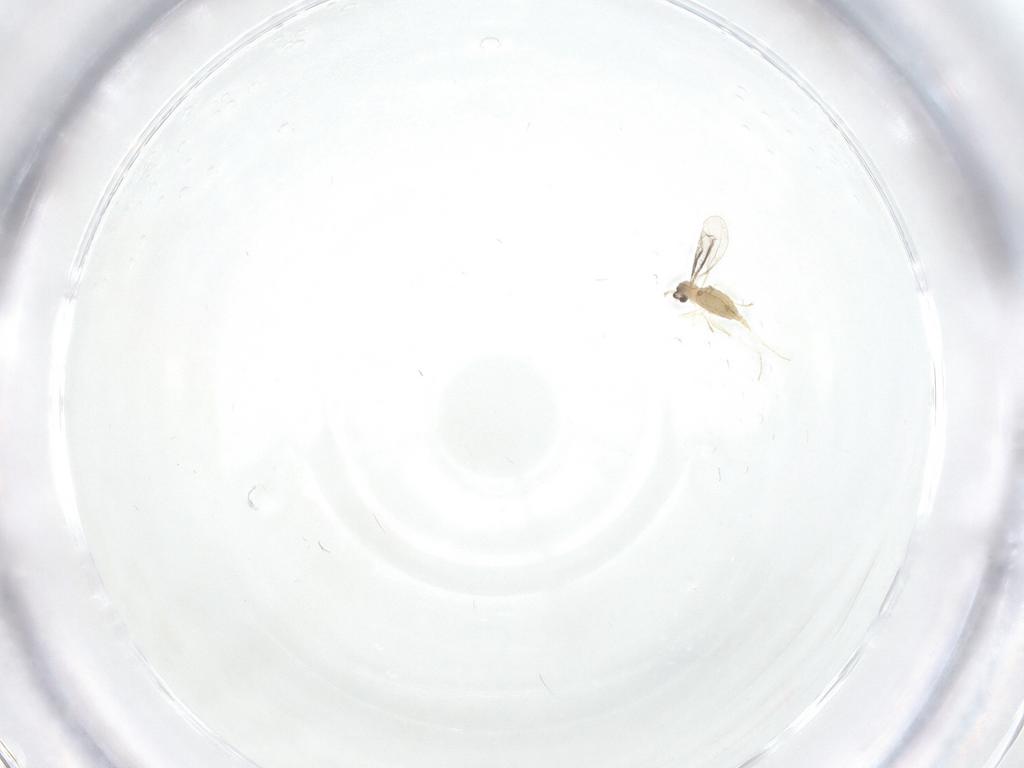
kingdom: Animalia
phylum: Arthropoda
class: Insecta
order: Diptera
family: Cecidomyiidae
